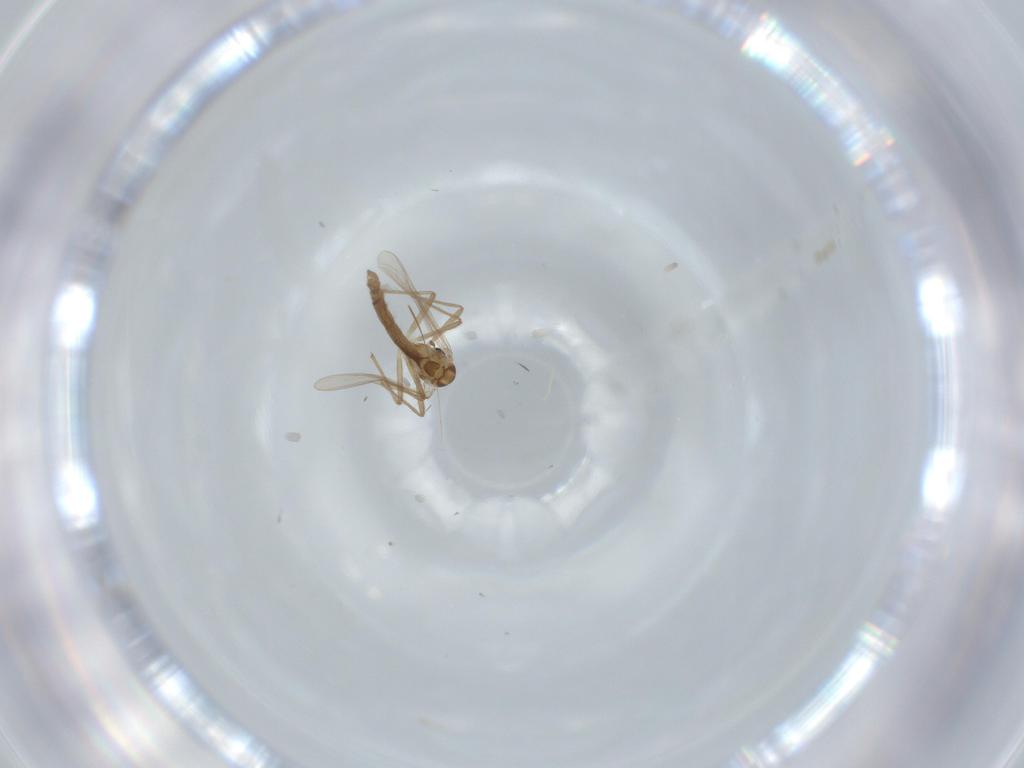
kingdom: Animalia
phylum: Arthropoda
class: Insecta
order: Diptera
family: Chironomidae
